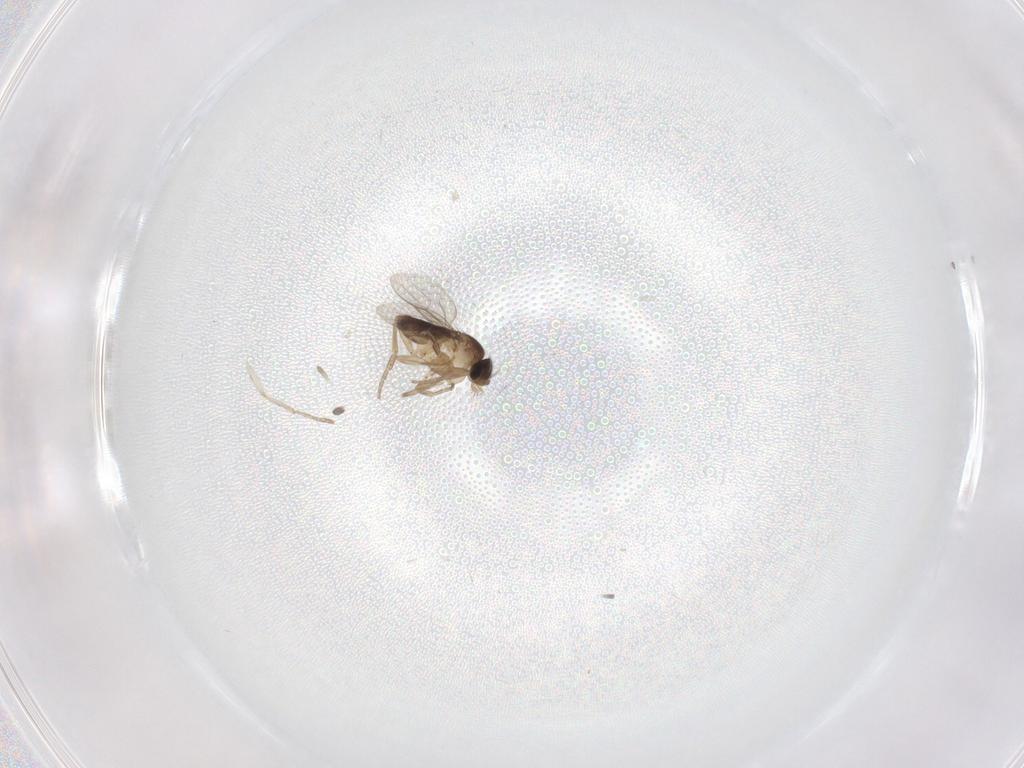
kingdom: Animalia
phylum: Arthropoda
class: Insecta
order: Diptera
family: Phoridae
